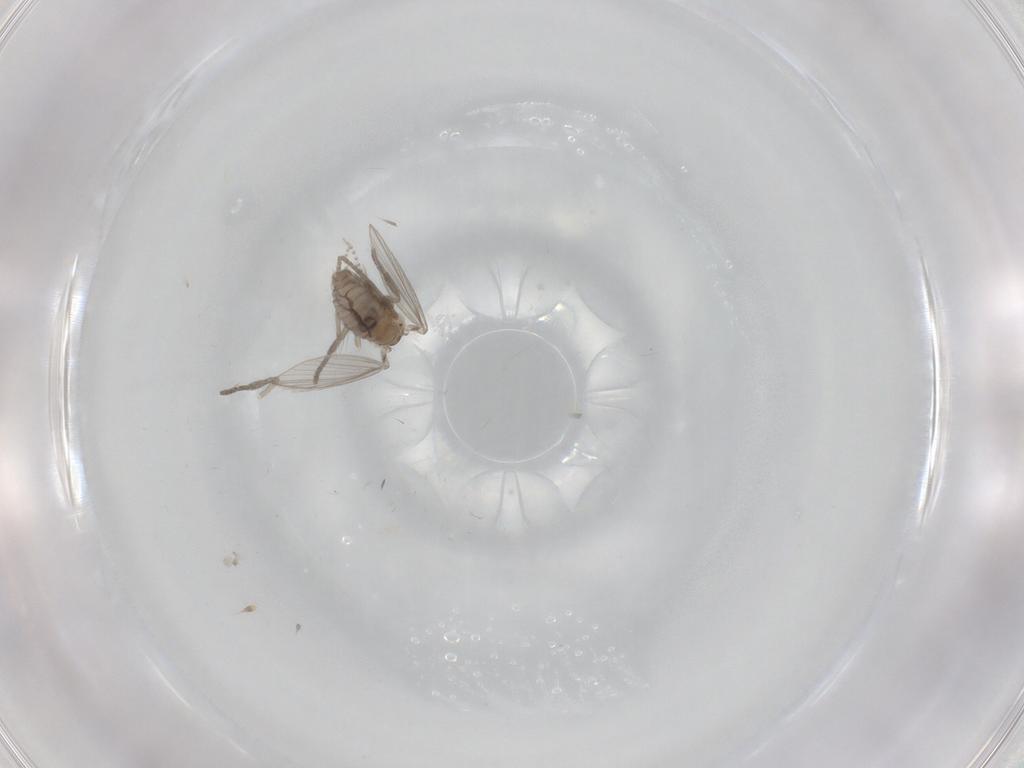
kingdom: Animalia
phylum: Arthropoda
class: Insecta
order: Diptera
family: Psychodidae
